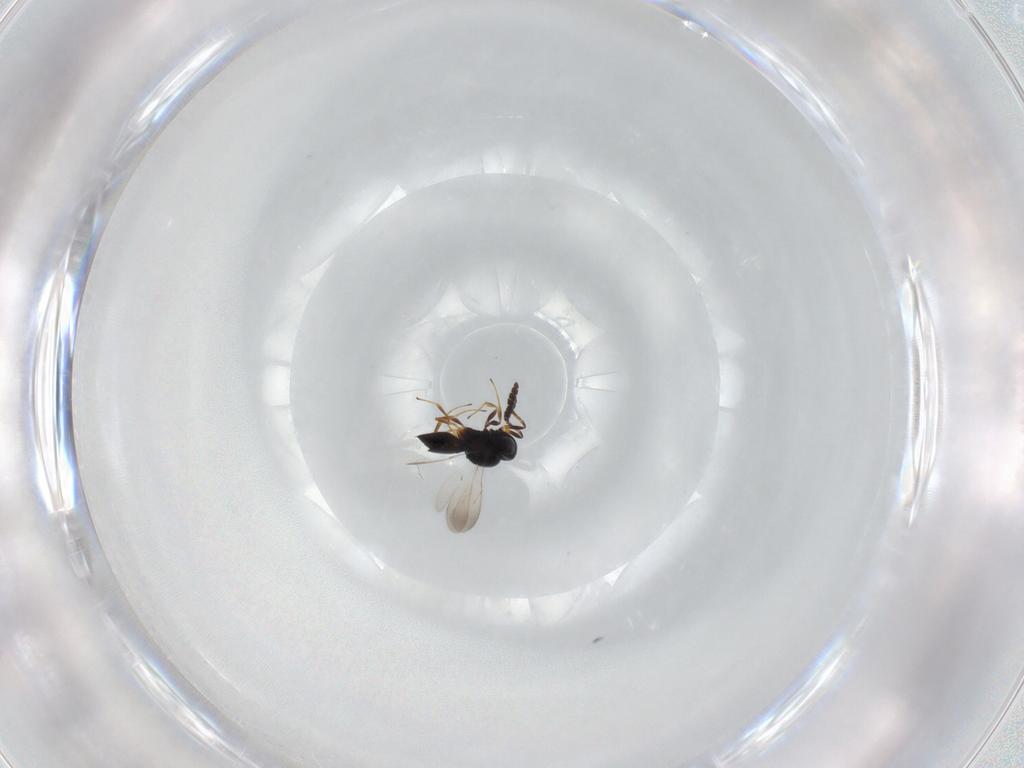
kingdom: Animalia
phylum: Arthropoda
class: Insecta
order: Hymenoptera
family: Scelionidae
